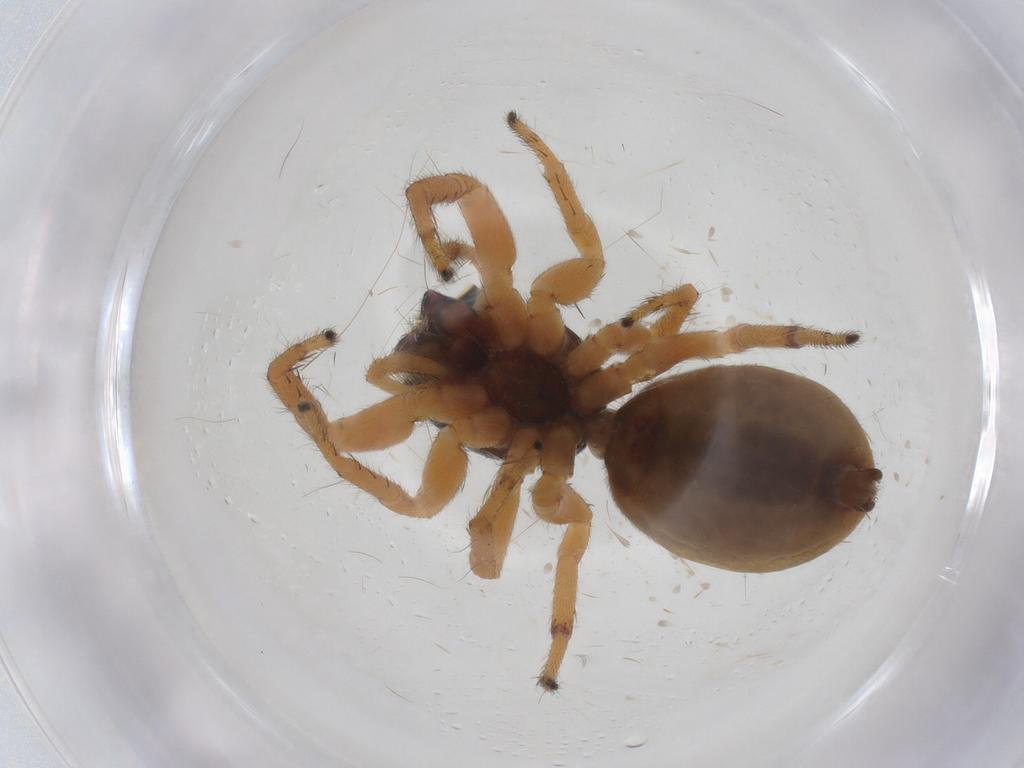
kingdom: Animalia
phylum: Arthropoda
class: Arachnida
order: Araneae
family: Salticidae
